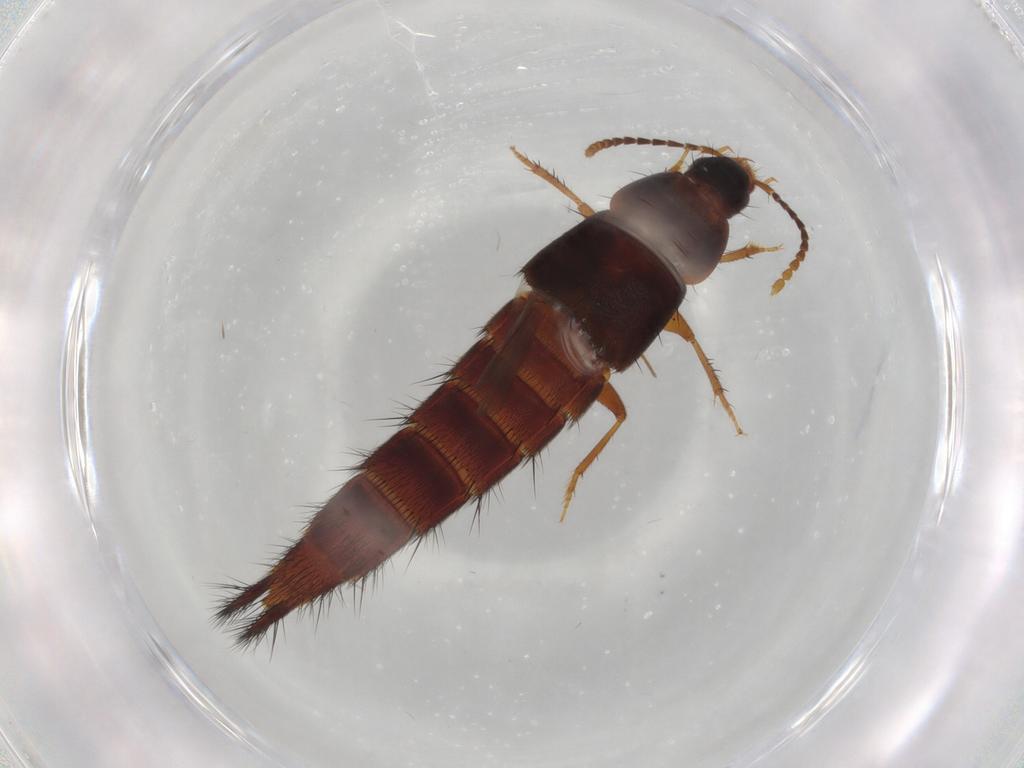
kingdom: Animalia
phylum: Arthropoda
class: Insecta
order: Coleoptera
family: Staphylinidae
